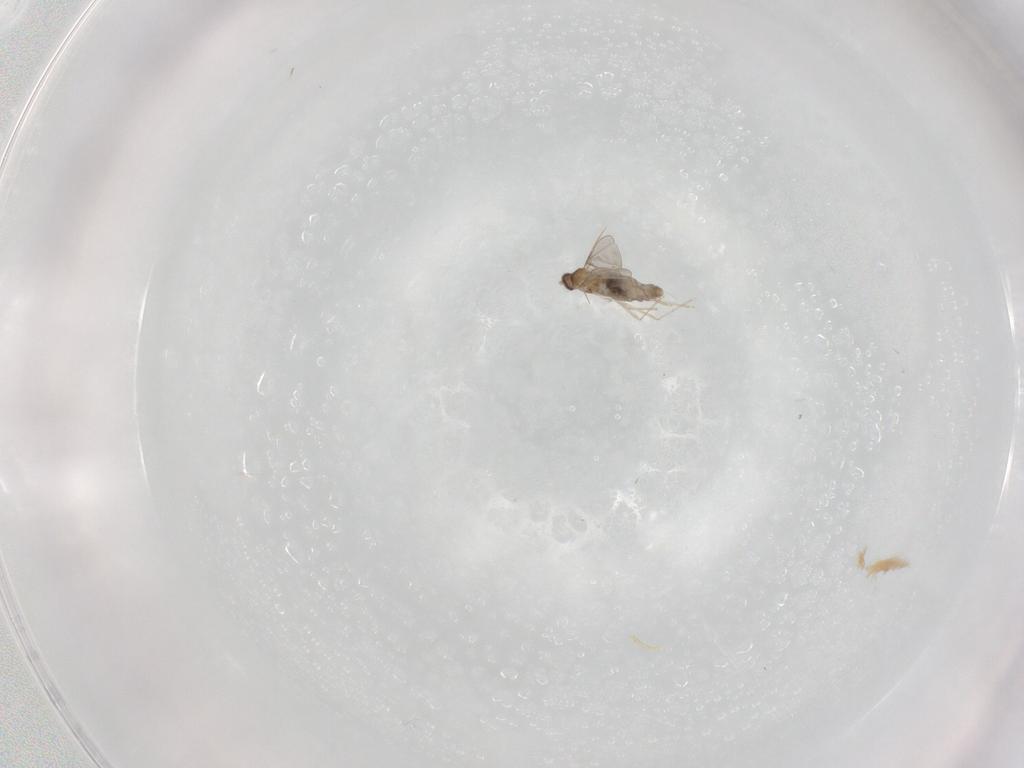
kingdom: Animalia
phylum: Arthropoda
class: Insecta
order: Diptera
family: Cecidomyiidae
